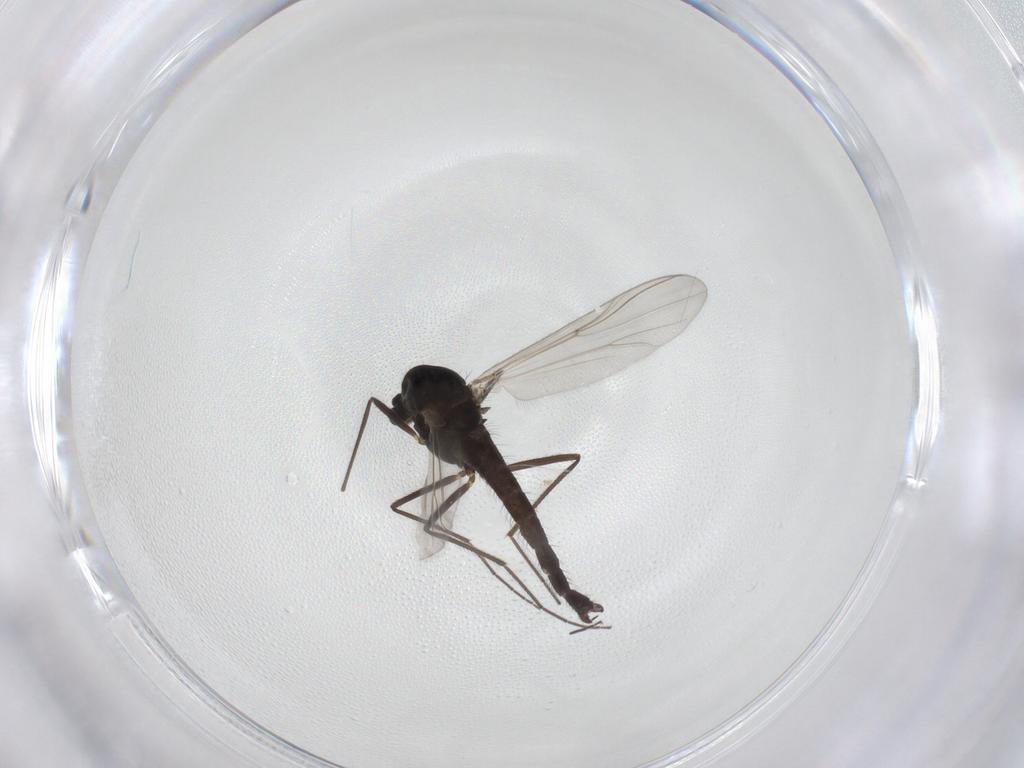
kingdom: Animalia
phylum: Arthropoda
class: Insecta
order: Diptera
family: Chironomidae
